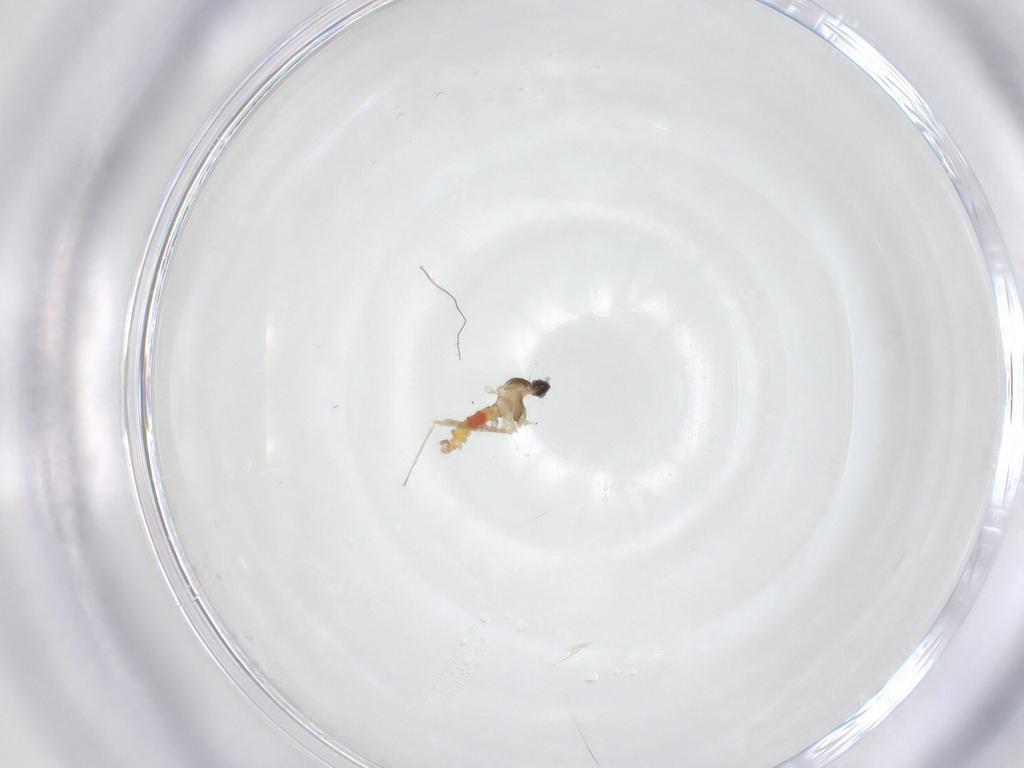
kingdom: Animalia
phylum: Arthropoda
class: Insecta
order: Diptera
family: Cecidomyiidae
